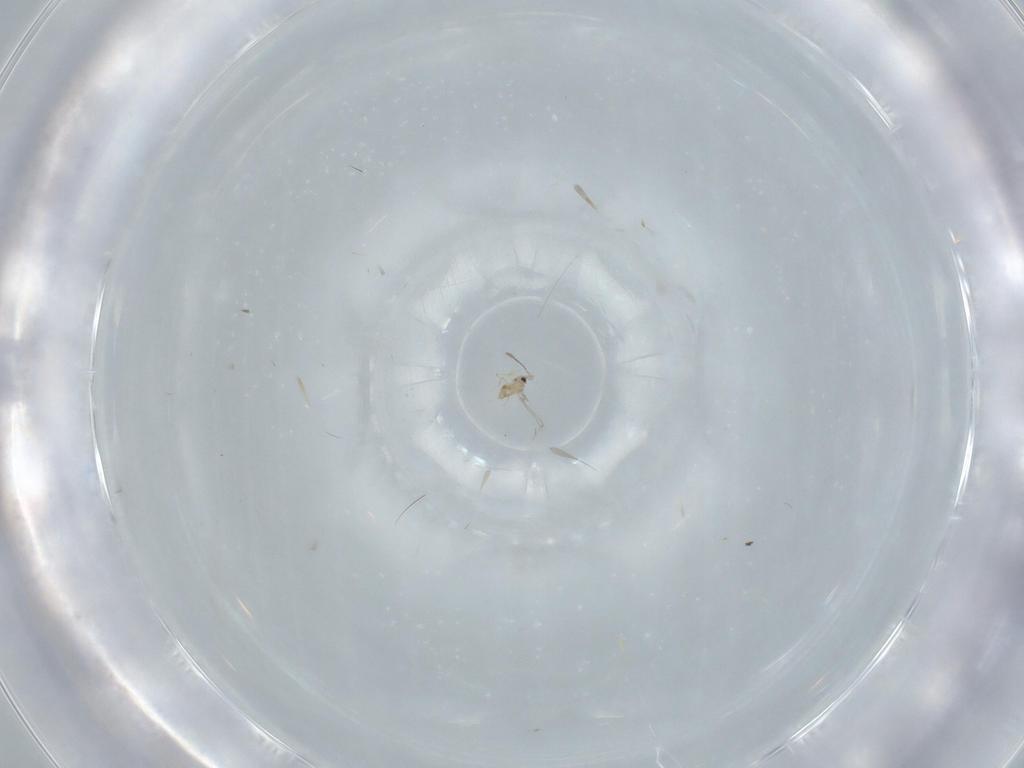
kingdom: Animalia
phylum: Arthropoda
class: Insecta
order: Hymenoptera
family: Mymaridae
